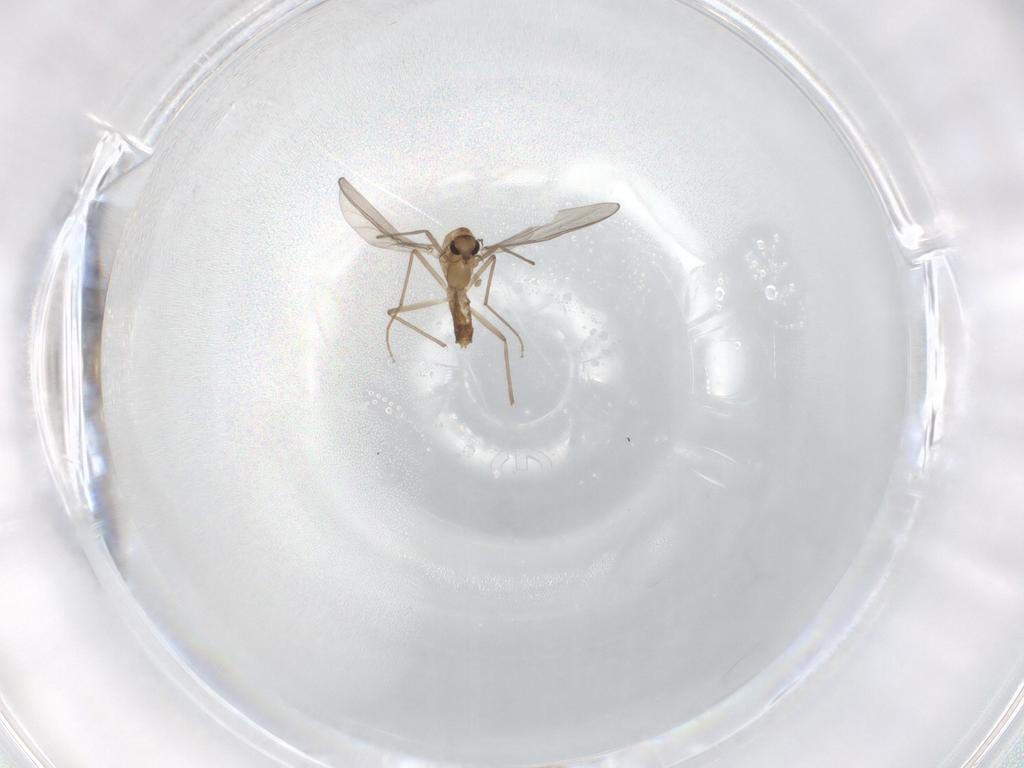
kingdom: Animalia
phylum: Arthropoda
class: Insecta
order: Diptera
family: Chironomidae
